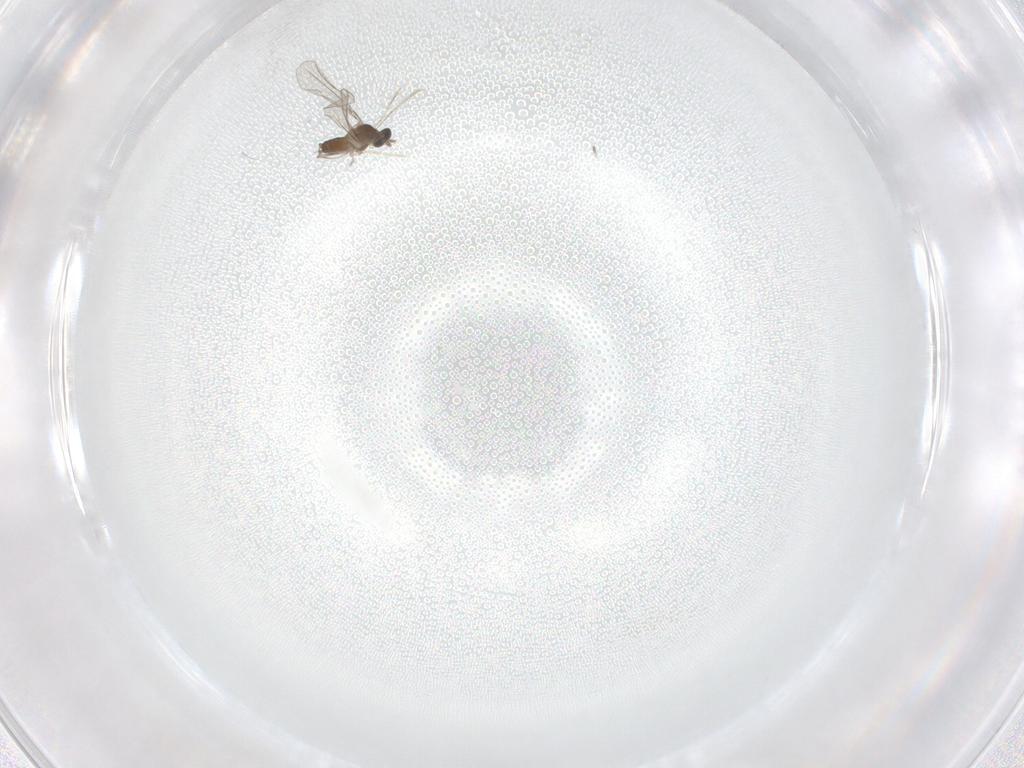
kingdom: Animalia
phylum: Arthropoda
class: Insecta
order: Diptera
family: Cecidomyiidae
